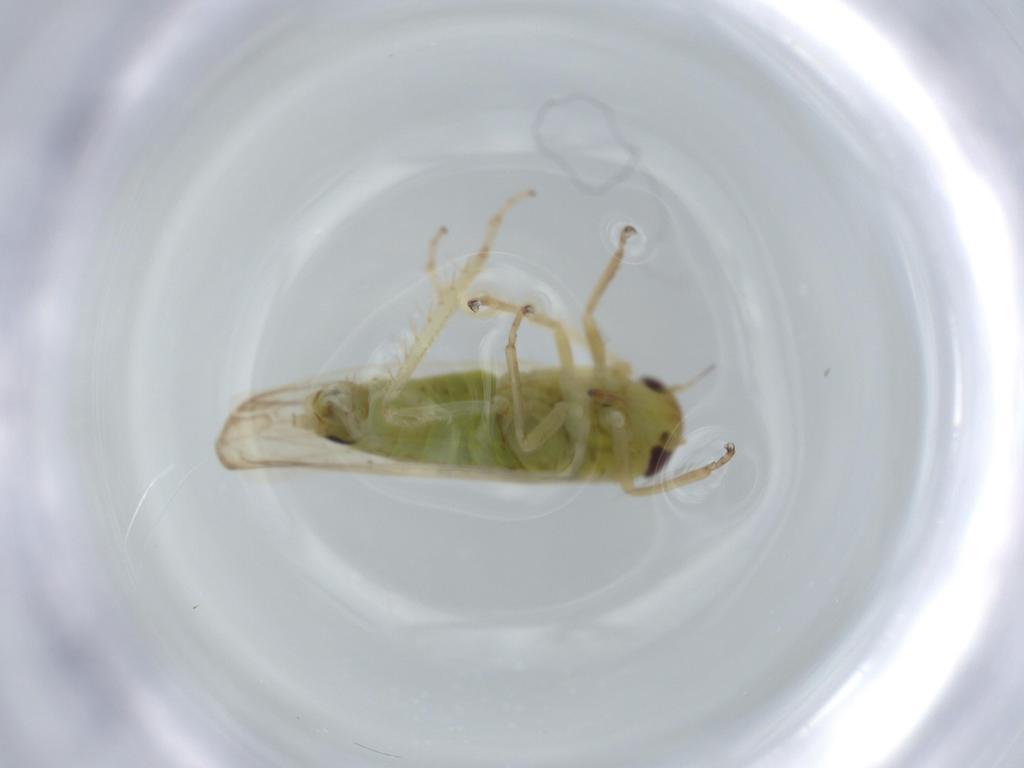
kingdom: Animalia
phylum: Arthropoda
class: Insecta
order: Hemiptera
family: Cicadellidae
